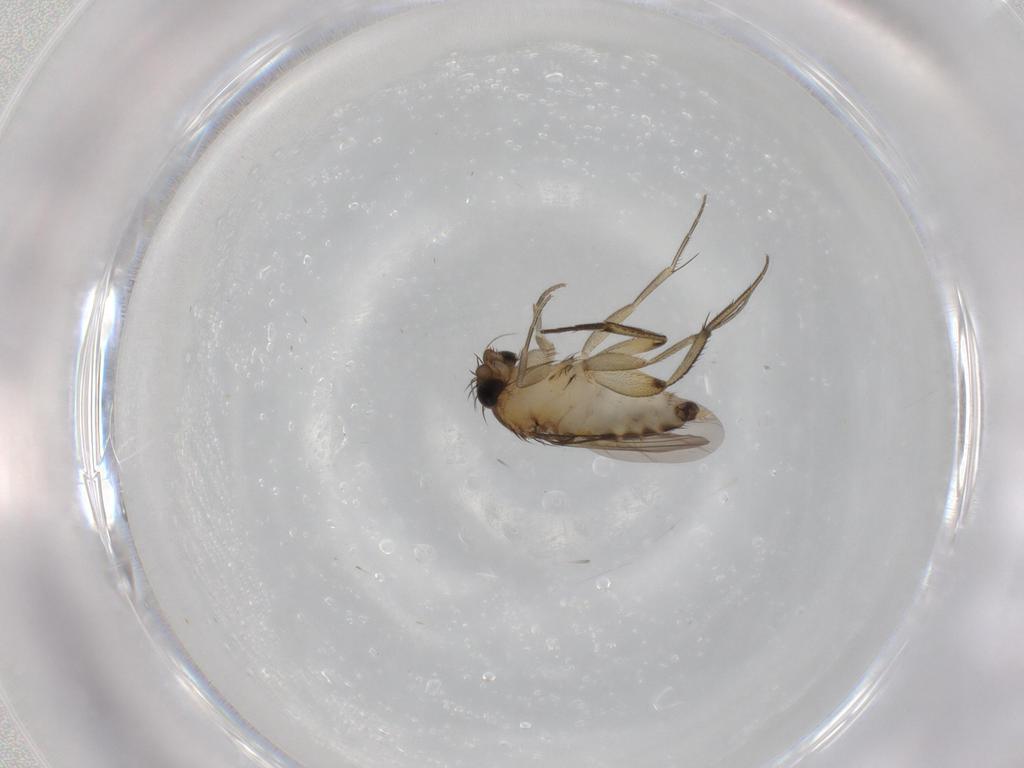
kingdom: Animalia
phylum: Arthropoda
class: Insecta
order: Diptera
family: Phoridae
